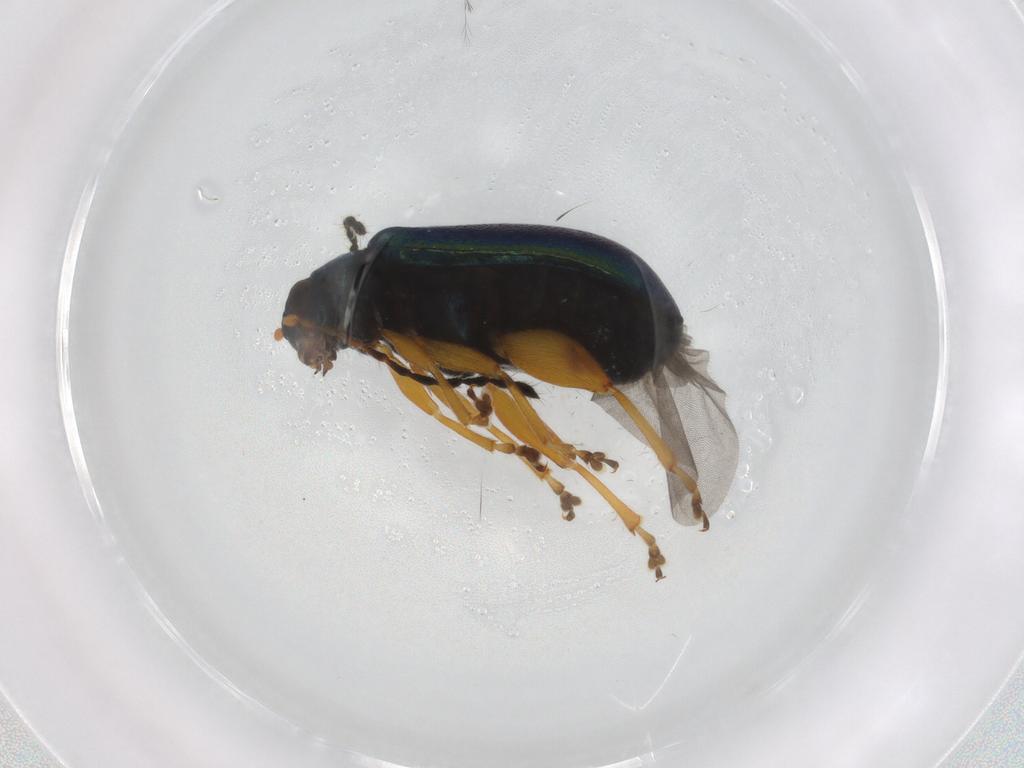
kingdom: Animalia
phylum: Arthropoda
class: Insecta
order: Coleoptera
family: Chrysomelidae
